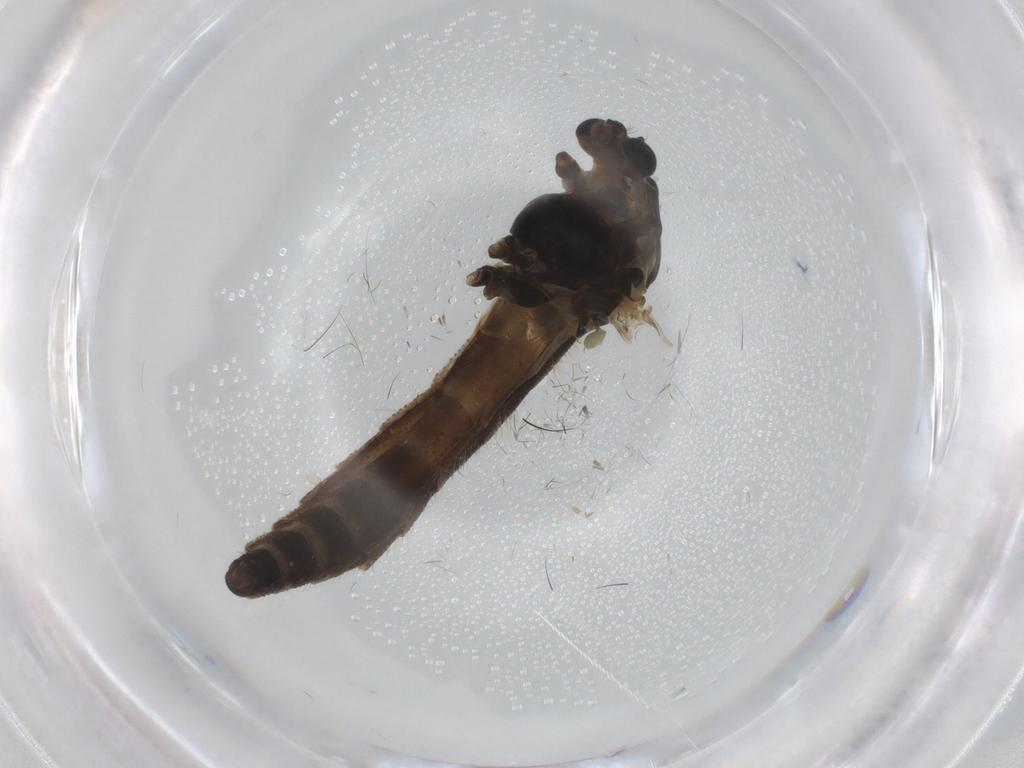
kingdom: Animalia
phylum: Arthropoda
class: Insecta
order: Diptera
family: Chironomidae
